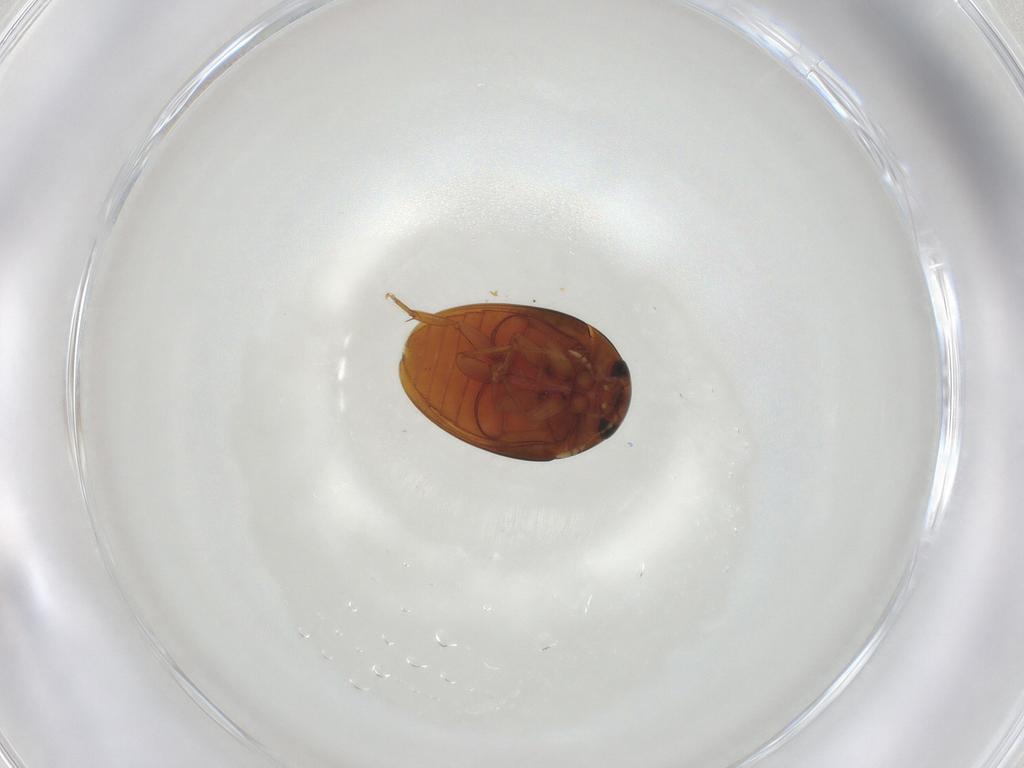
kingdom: Animalia
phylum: Arthropoda
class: Insecta
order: Coleoptera
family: Phalacridae
